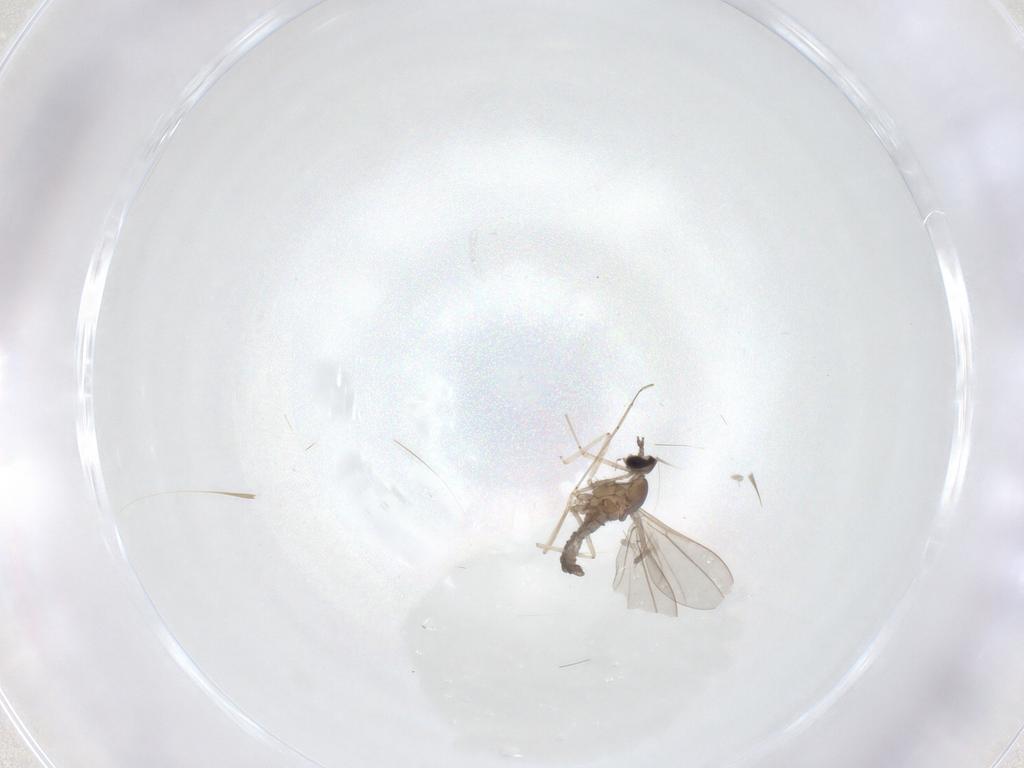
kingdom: Animalia
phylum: Arthropoda
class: Insecta
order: Diptera
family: Cecidomyiidae
